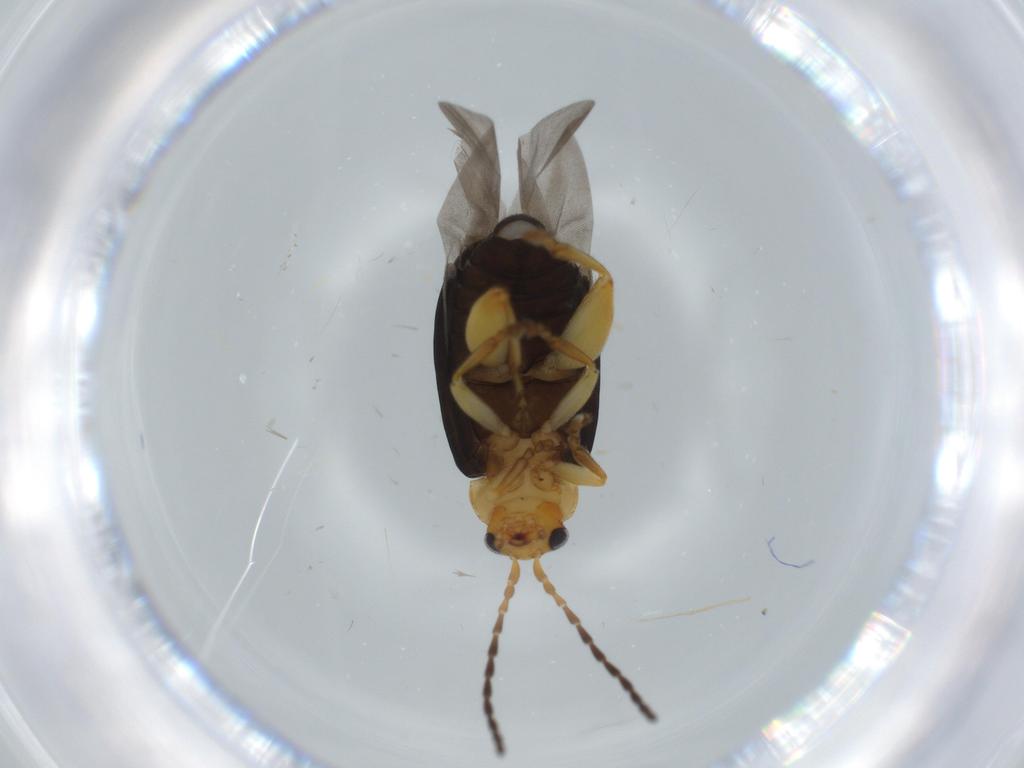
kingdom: Animalia
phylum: Arthropoda
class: Insecta
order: Coleoptera
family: Chrysomelidae
